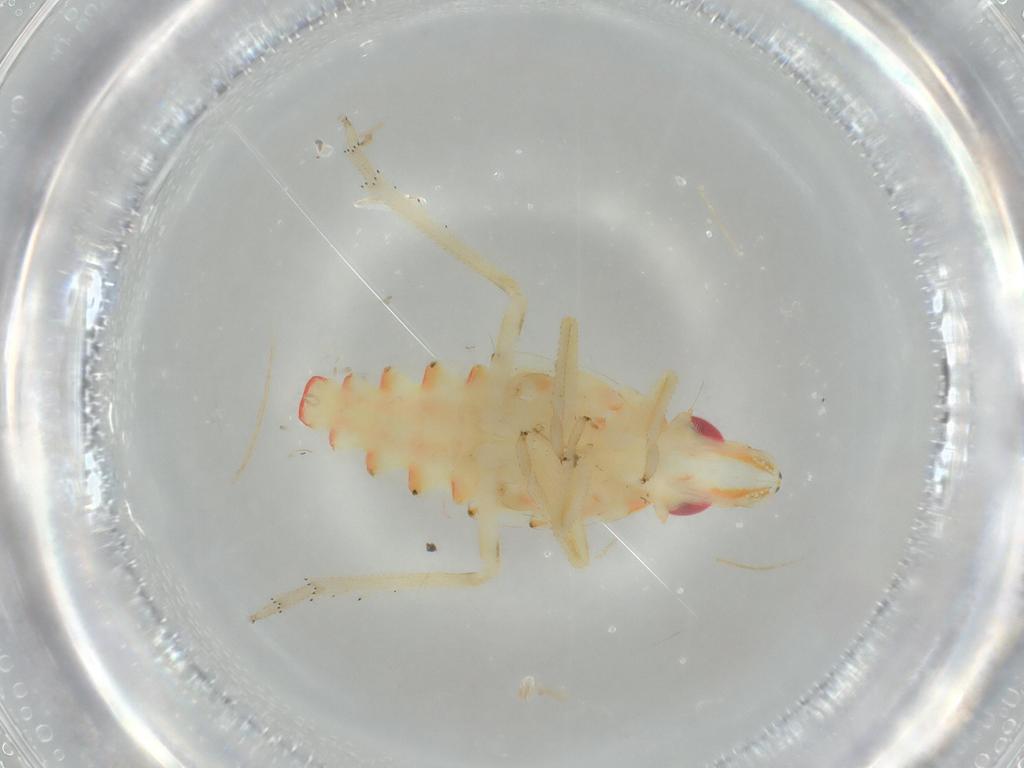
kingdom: Animalia
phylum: Arthropoda
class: Insecta
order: Hemiptera
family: Tropiduchidae
